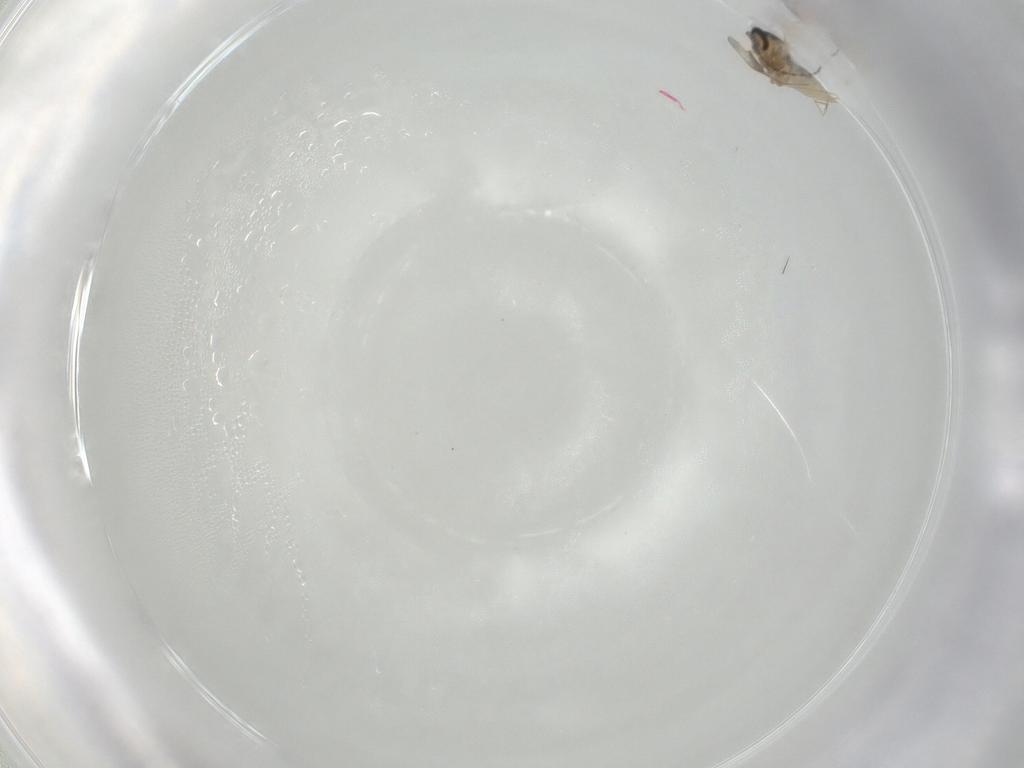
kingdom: Animalia
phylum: Arthropoda
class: Insecta
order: Diptera
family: Cecidomyiidae
